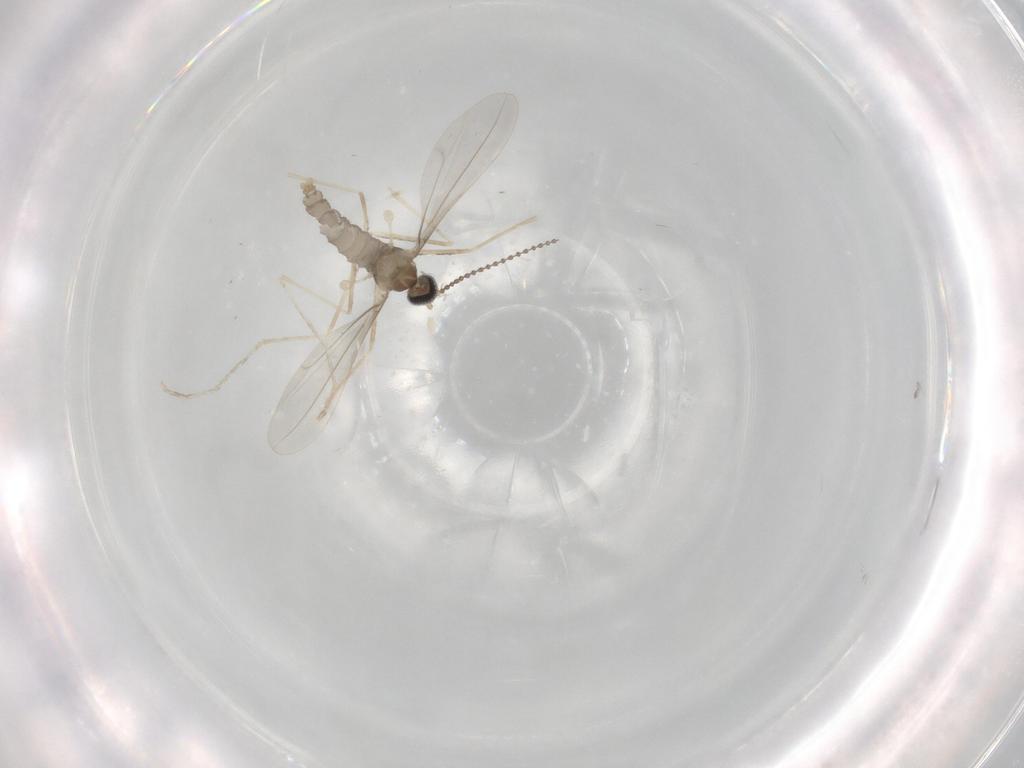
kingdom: Animalia
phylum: Arthropoda
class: Insecta
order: Diptera
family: Cecidomyiidae
